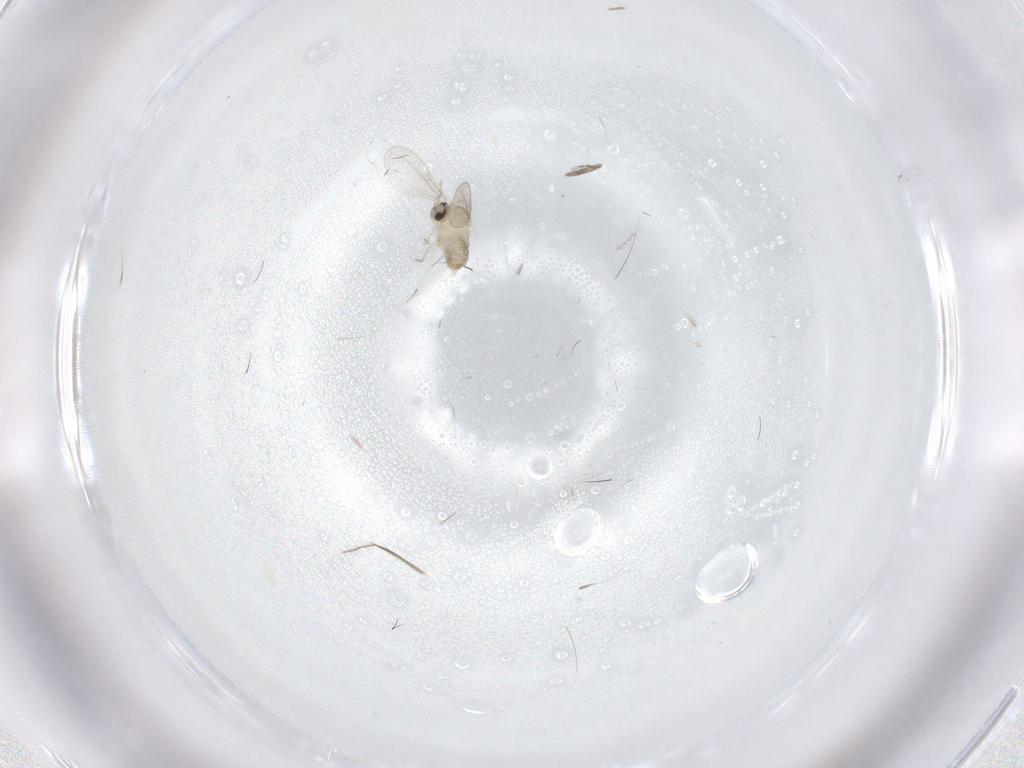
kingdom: Animalia
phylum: Arthropoda
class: Insecta
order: Diptera
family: Cecidomyiidae
